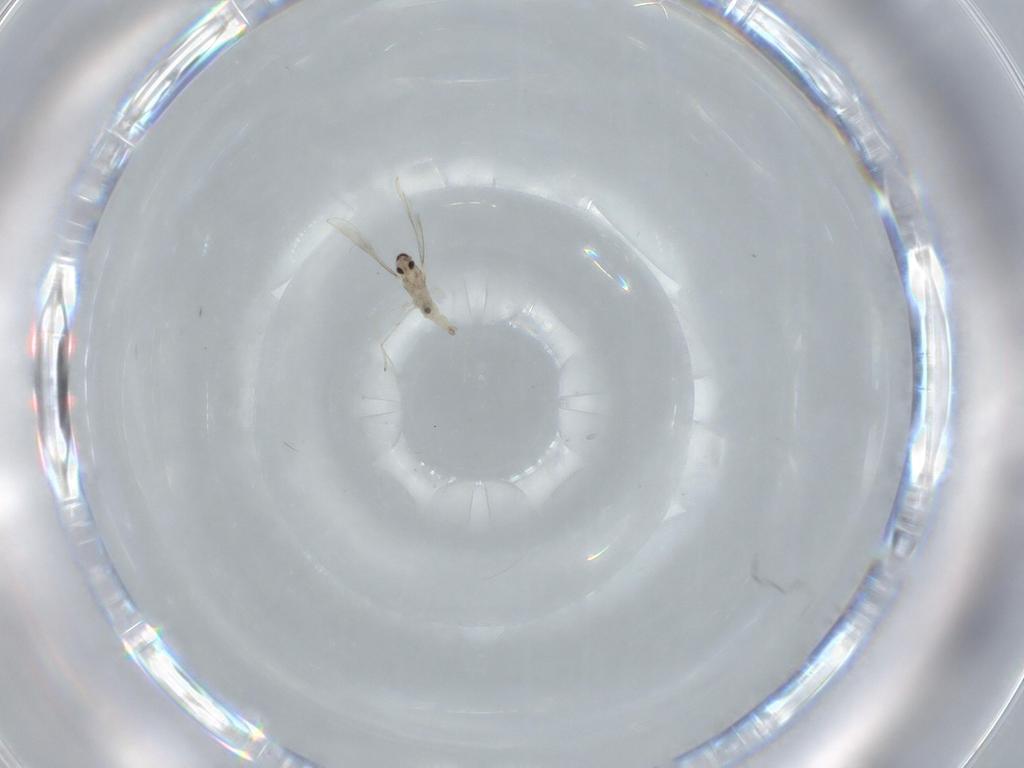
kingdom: Animalia
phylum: Arthropoda
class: Insecta
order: Diptera
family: Cecidomyiidae
